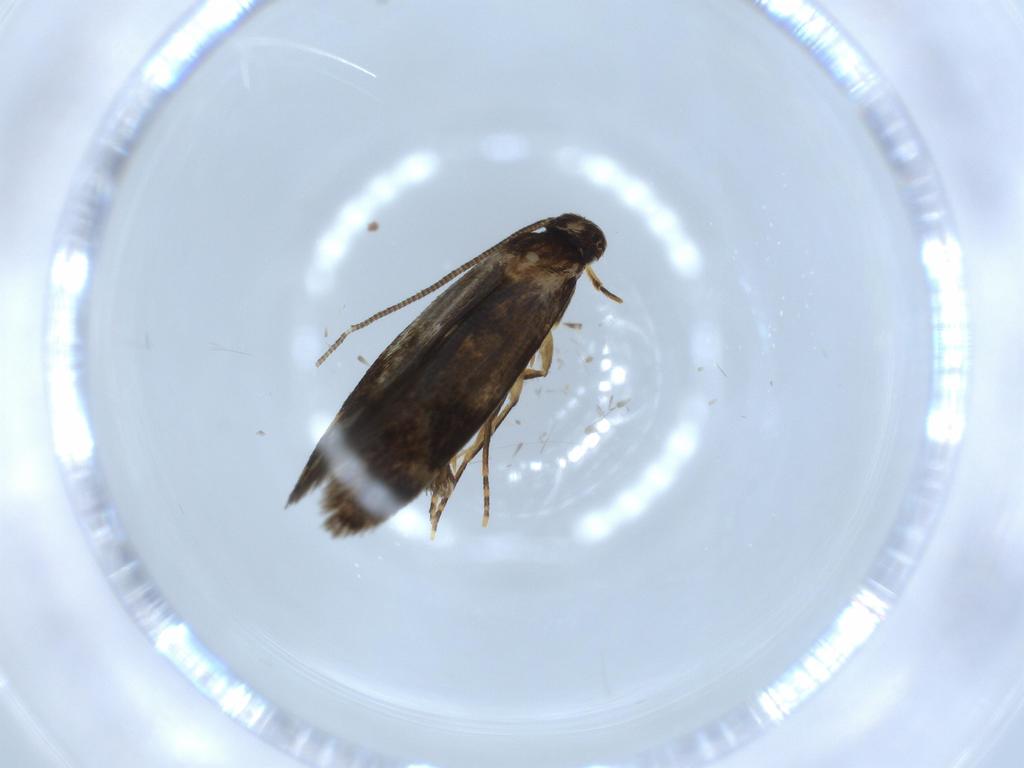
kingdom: Animalia
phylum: Arthropoda
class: Insecta
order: Lepidoptera
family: Tineidae
